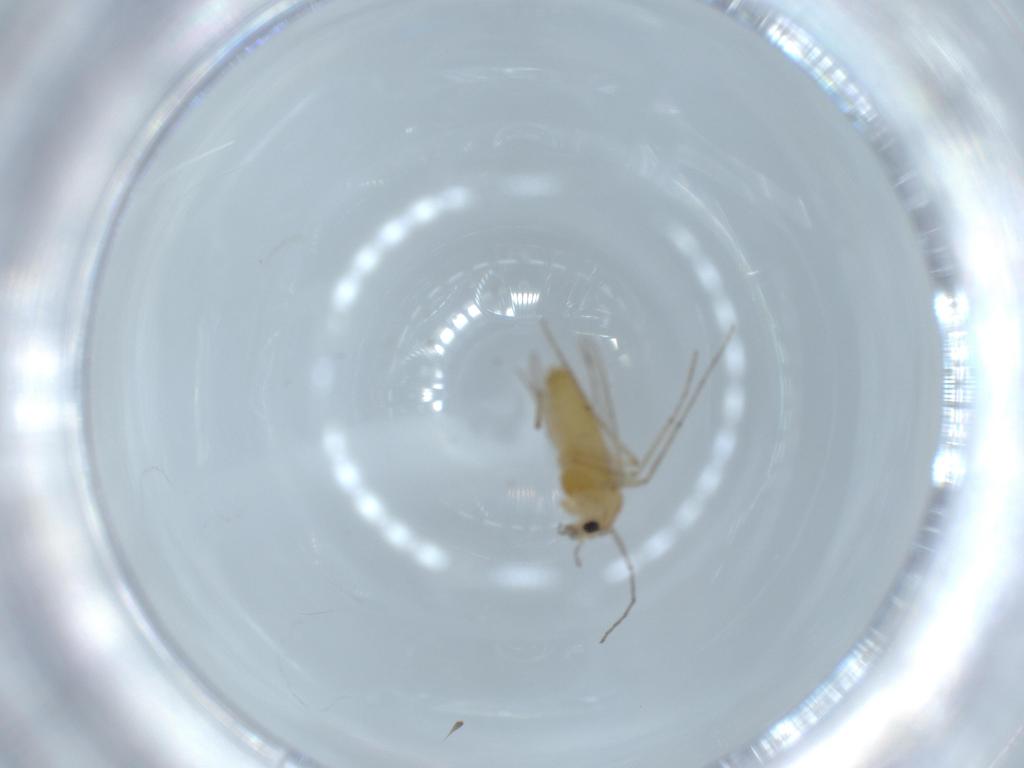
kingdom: Animalia
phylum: Arthropoda
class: Insecta
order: Diptera
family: Chironomidae
